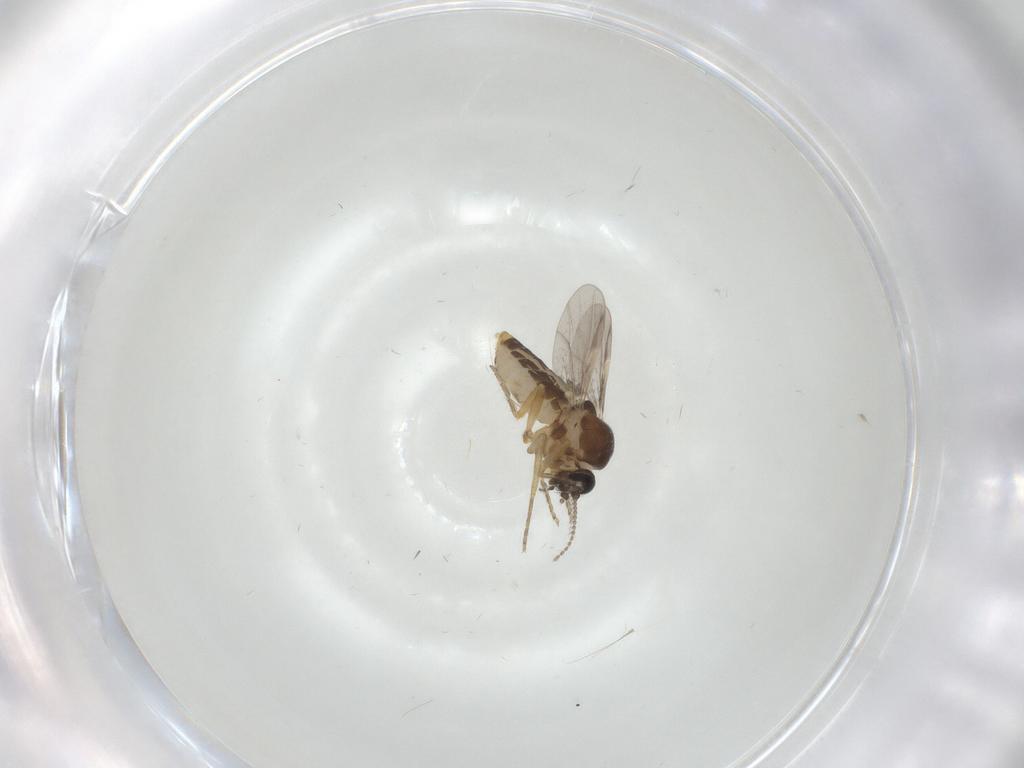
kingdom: Animalia
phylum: Arthropoda
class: Insecta
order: Diptera
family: Ceratopogonidae
